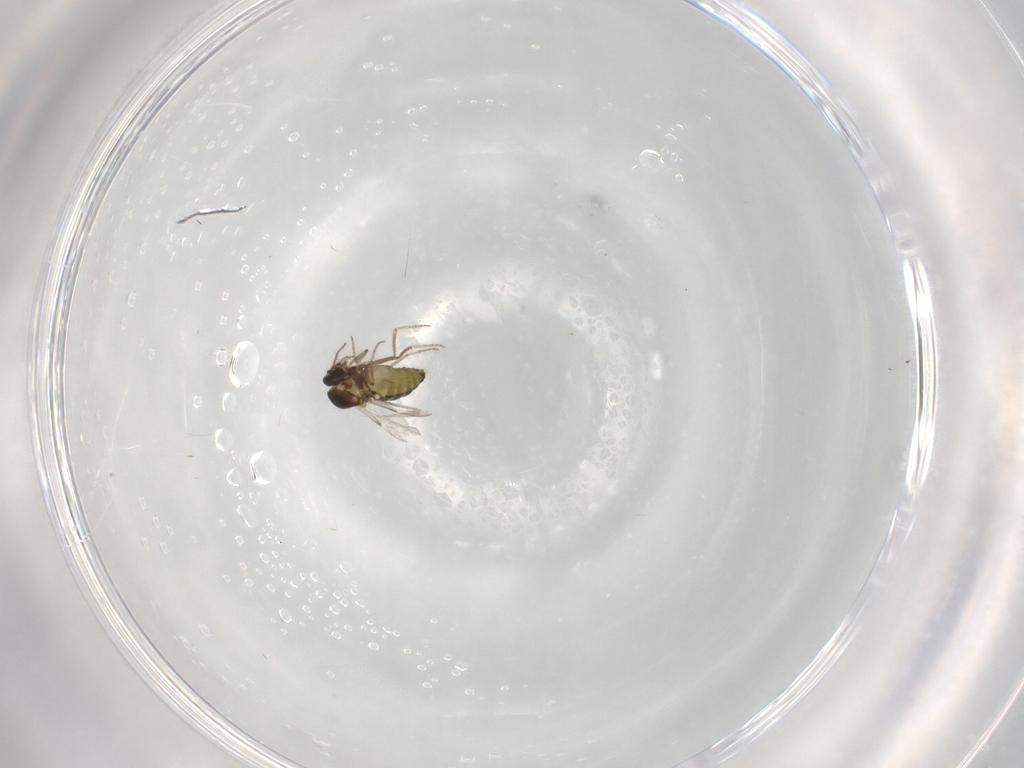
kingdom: Animalia
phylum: Arthropoda
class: Insecta
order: Diptera
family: Ceratopogonidae
